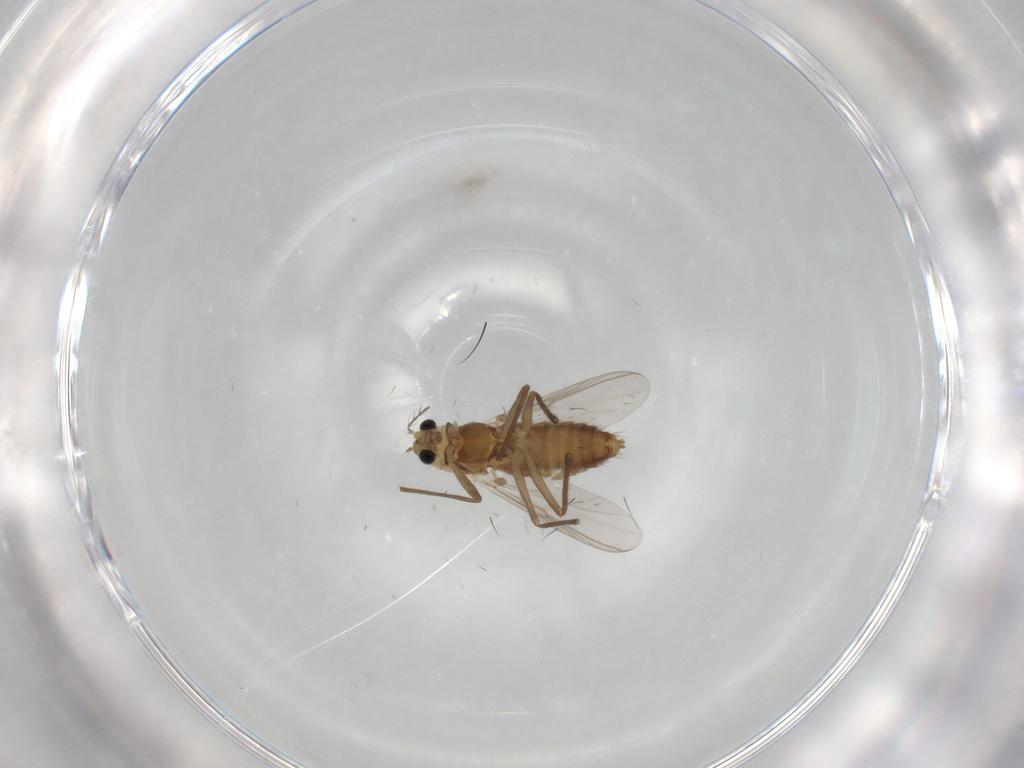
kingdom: Animalia
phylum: Arthropoda
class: Insecta
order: Diptera
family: Chironomidae
